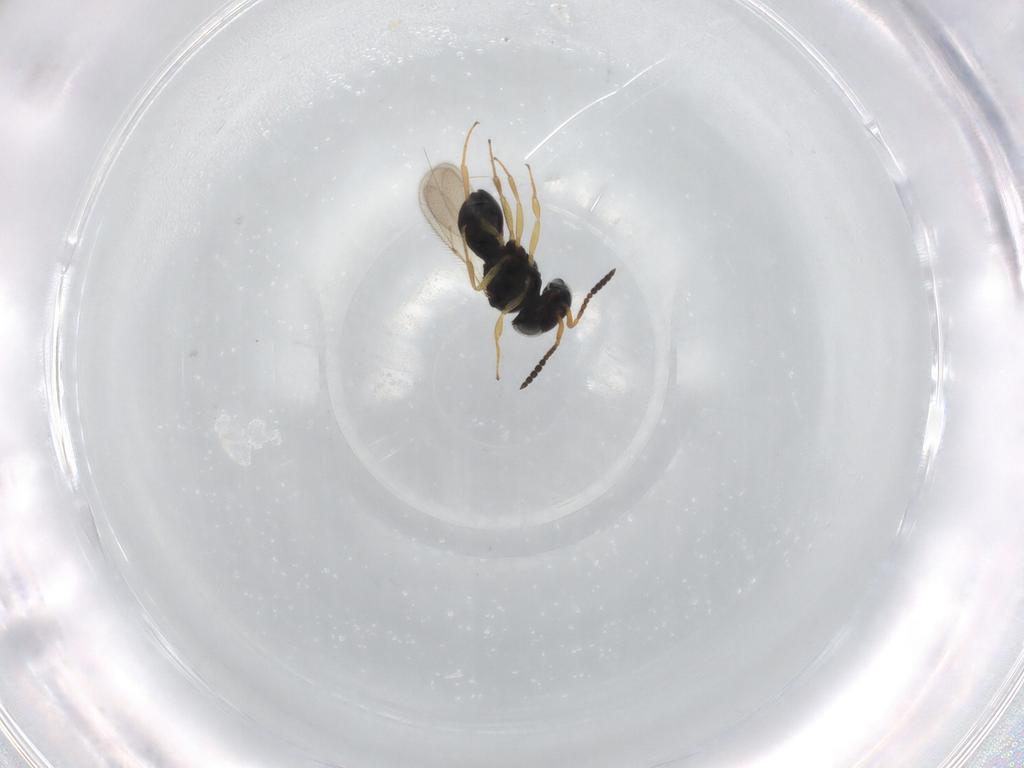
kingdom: Animalia
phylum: Arthropoda
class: Insecta
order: Hymenoptera
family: Scelionidae
